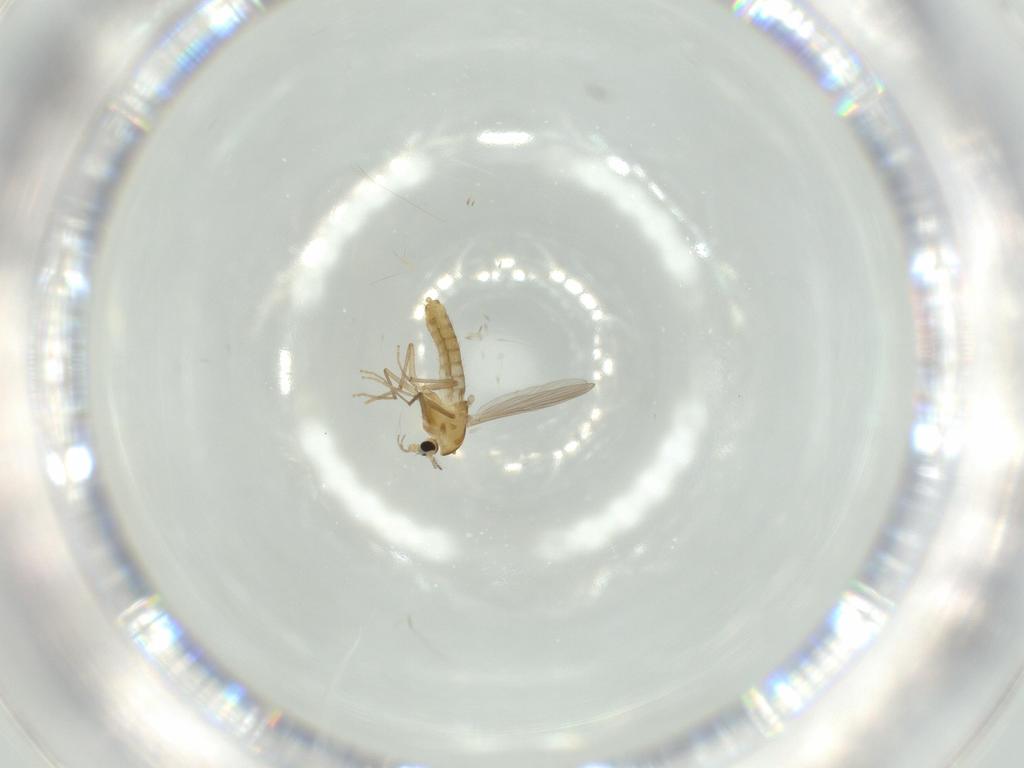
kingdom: Animalia
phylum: Arthropoda
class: Insecta
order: Diptera
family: Chironomidae
